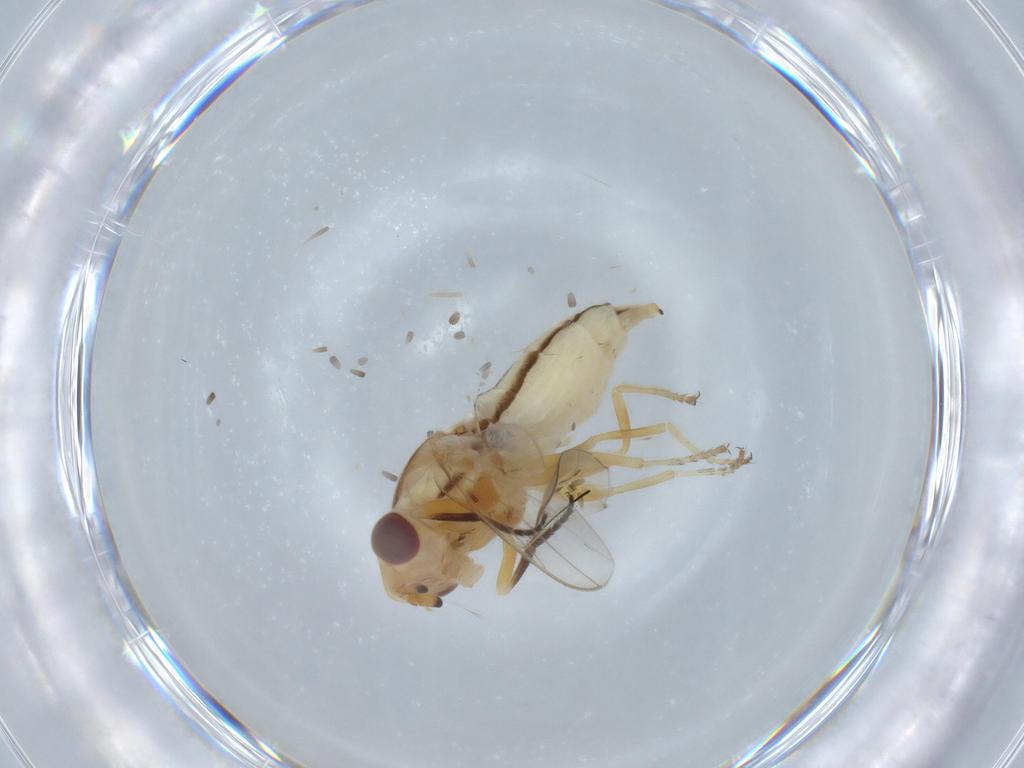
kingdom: Animalia
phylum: Arthropoda
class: Insecta
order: Diptera
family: Chloropidae
